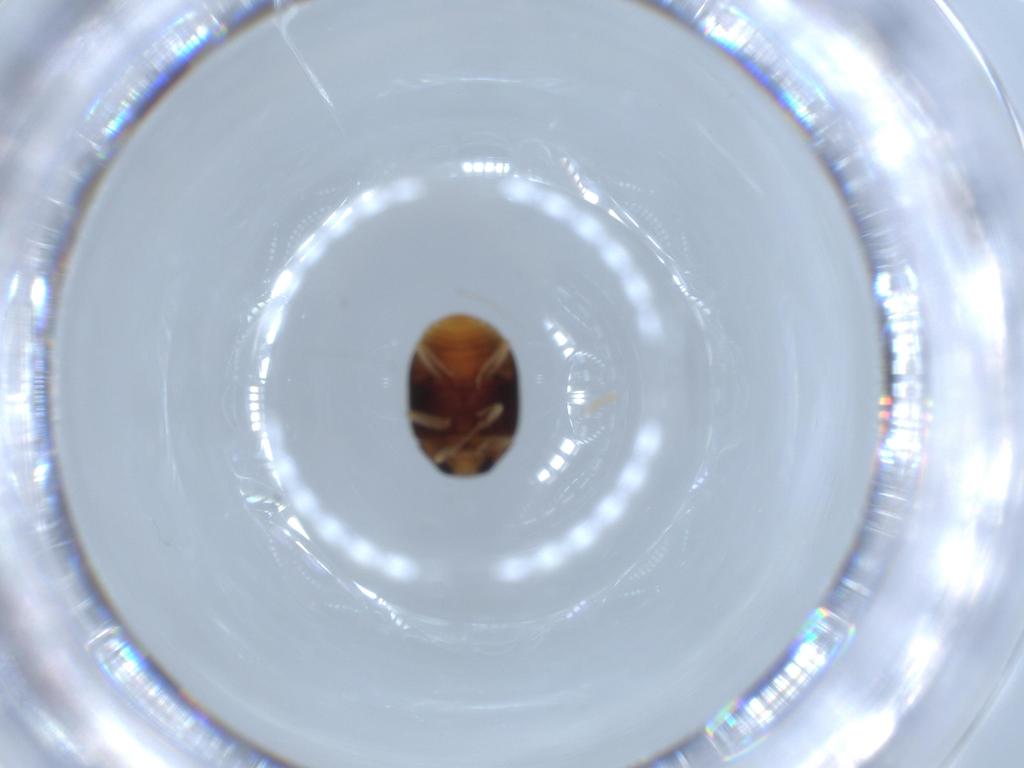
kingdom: Animalia
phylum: Arthropoda
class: Insecta
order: Coleoptera
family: Coccinellidae
